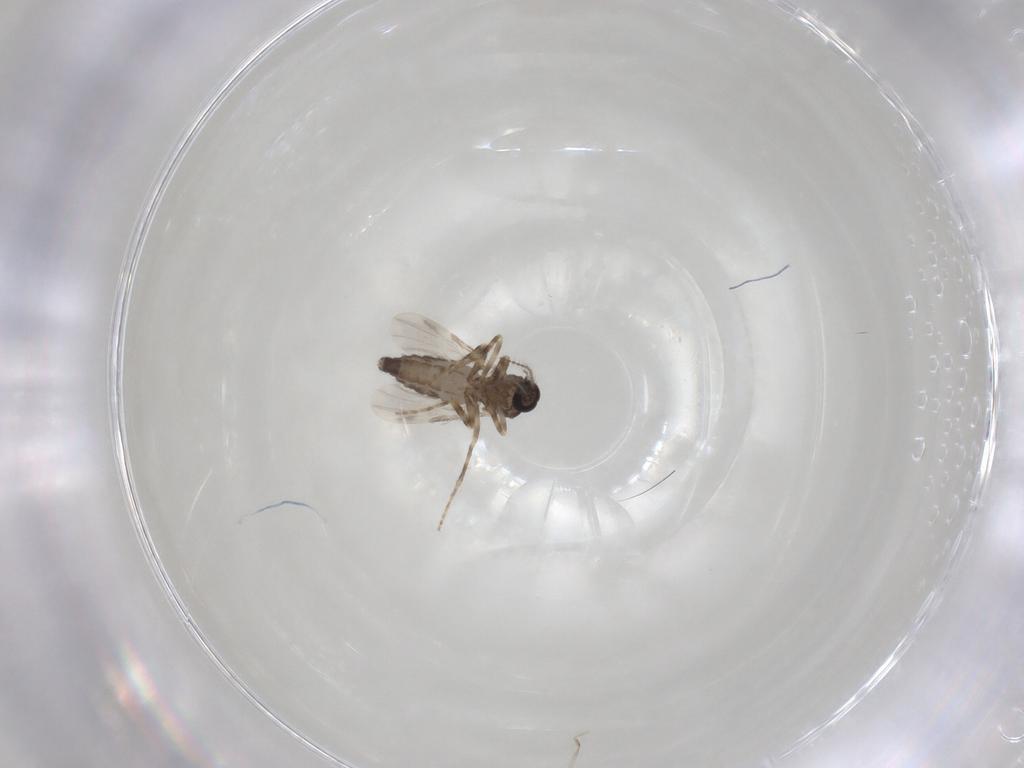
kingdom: Animalia
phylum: Arthropoda
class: Insecta
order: Diptera
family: Ceratopogonidae
